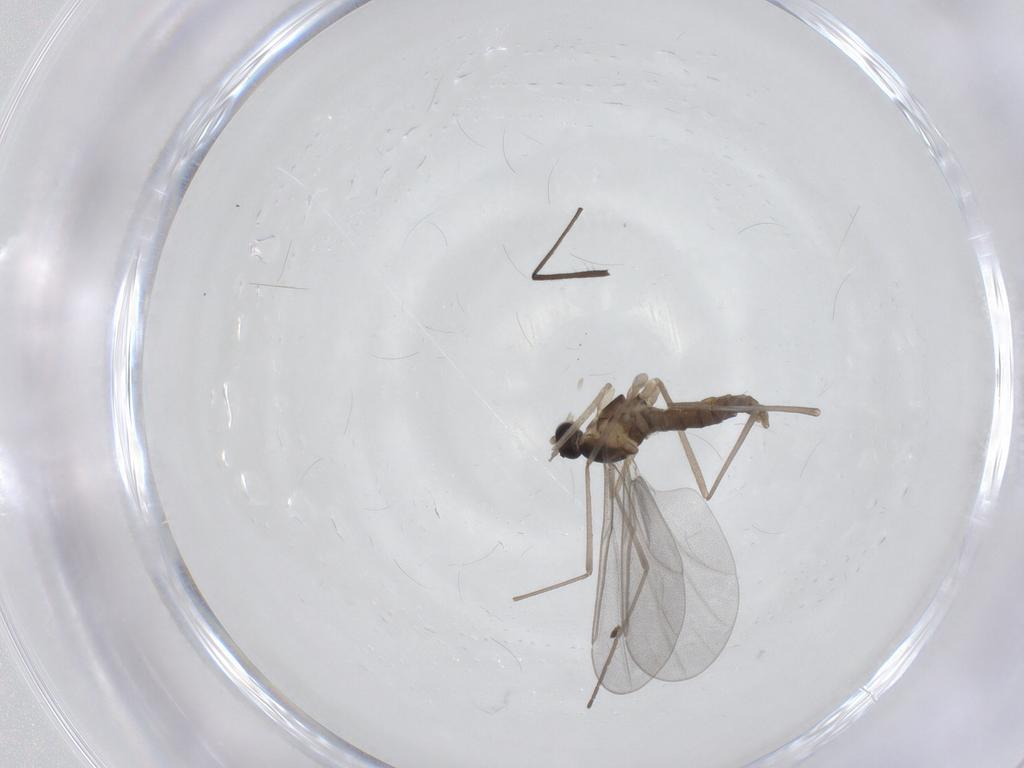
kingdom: Animalia
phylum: Arthropoda
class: Insecta
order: Diptera
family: Cecidomyiidae
